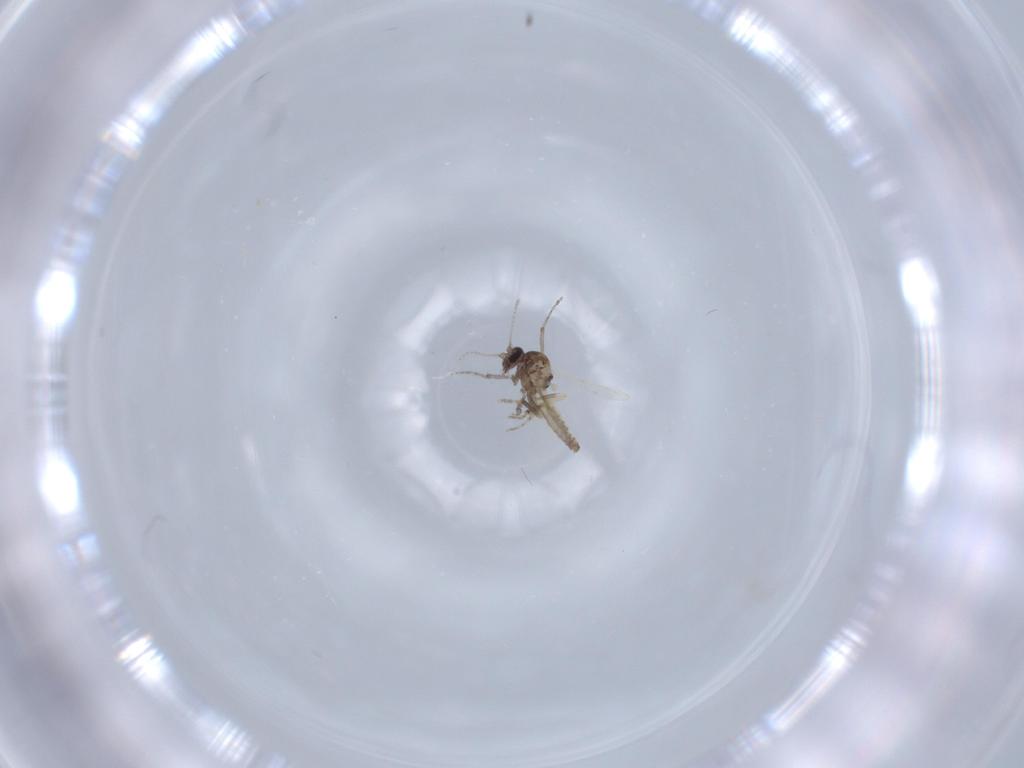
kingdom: Animalia
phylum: Arthropoda
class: Insecta
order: Diptera
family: Ceratopogonidae
